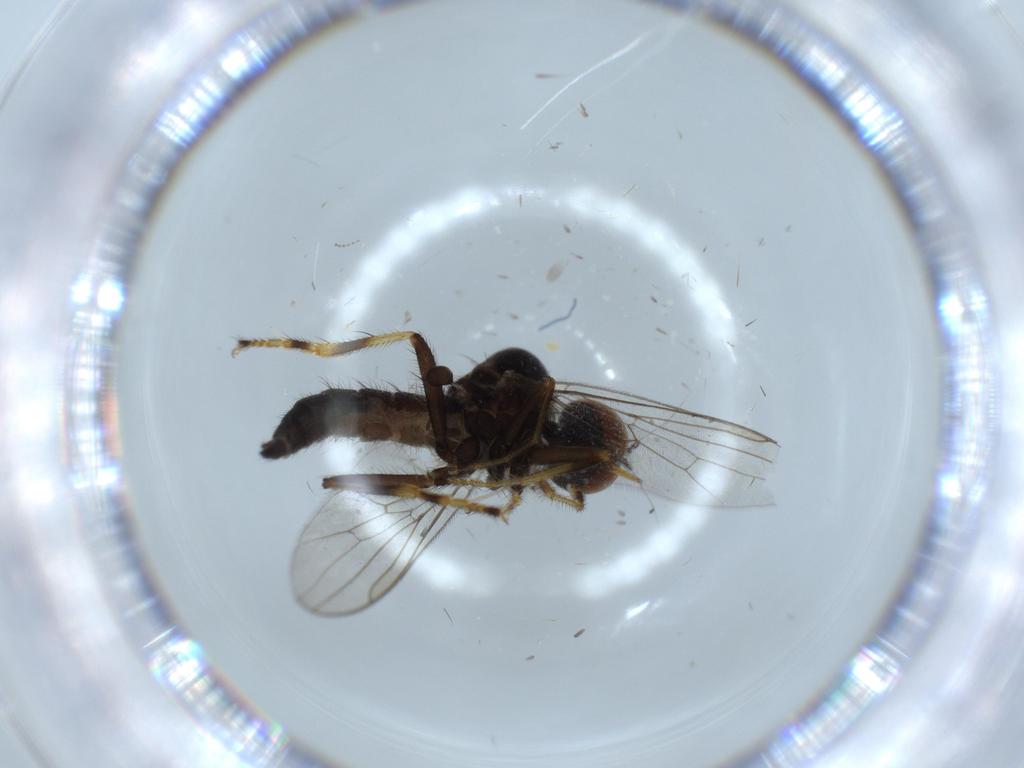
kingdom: Animalia
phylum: Arthropoda
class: Insecta
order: Diptera
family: Hybotidae
